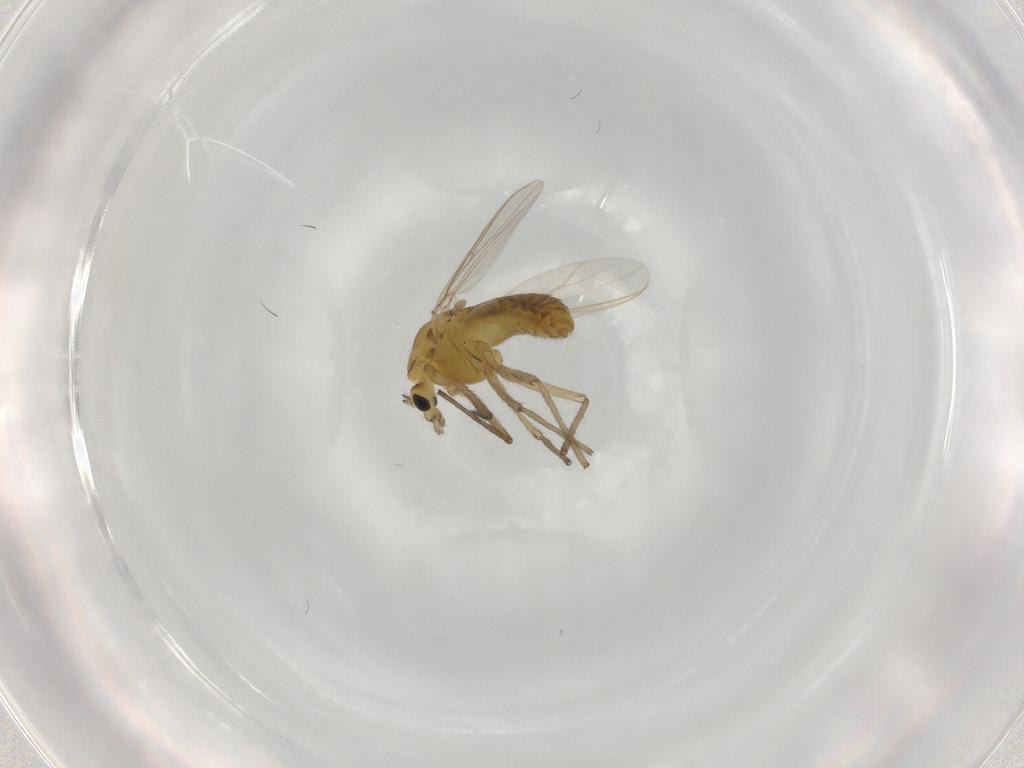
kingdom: Animalia
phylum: Arthropoda
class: Insecta
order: Diptera
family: Chironomidae
